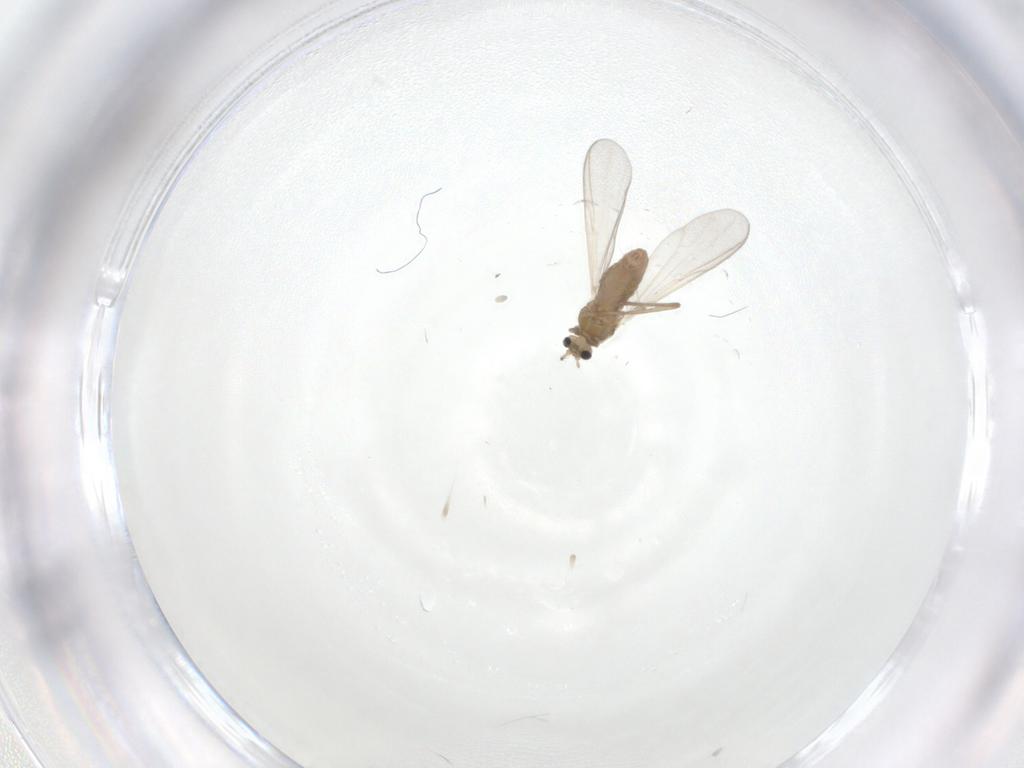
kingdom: Animalia
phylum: Arthropoda
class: Insecta
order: Diptera
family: Chironomidae
